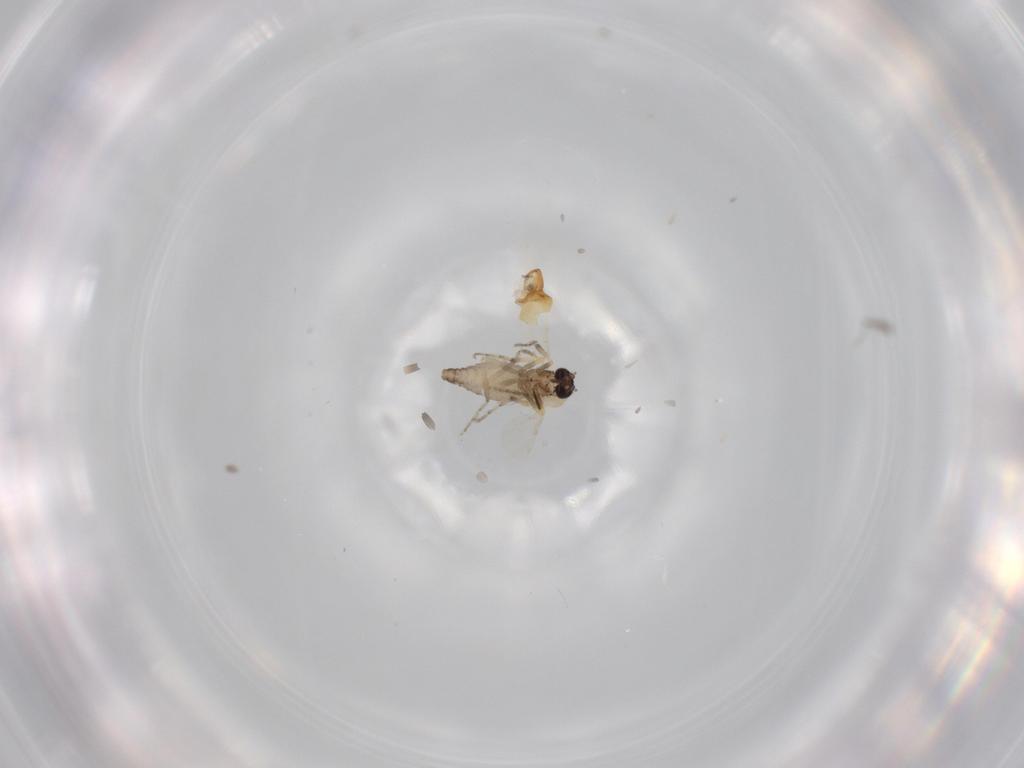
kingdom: Animalia
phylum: Arthropoda
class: Insecta
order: Diptera
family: Ceratopogonidae
